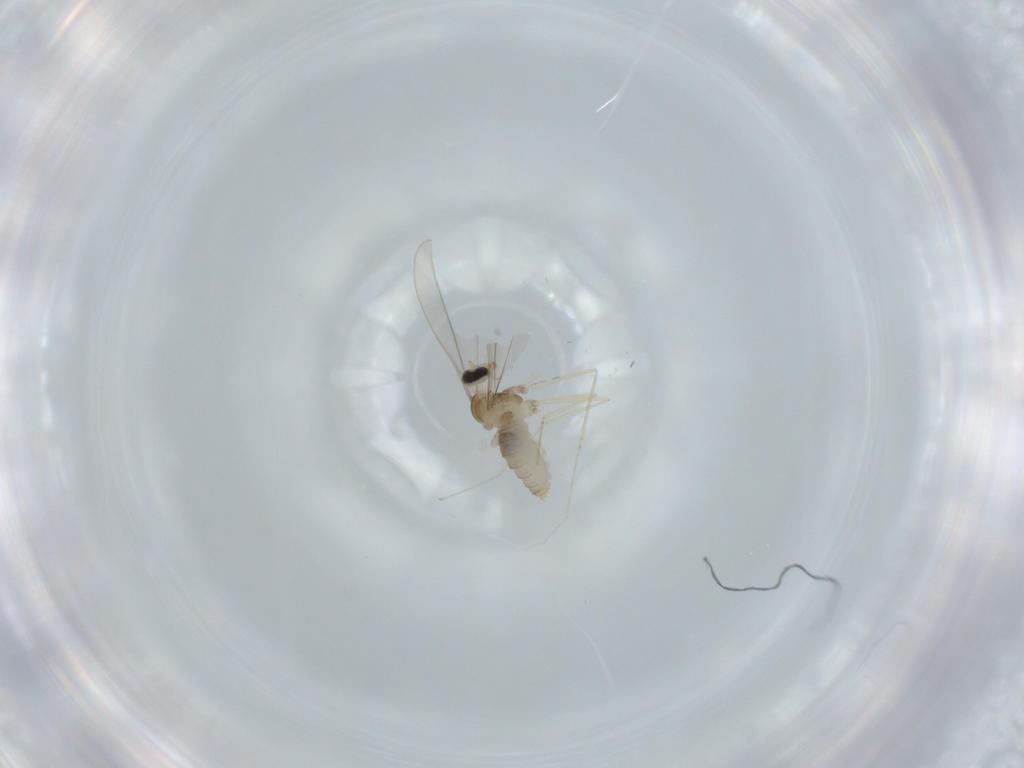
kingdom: Animalia
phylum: Arthropoda
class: Insecta
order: Diptera
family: Cecidomyiidae
